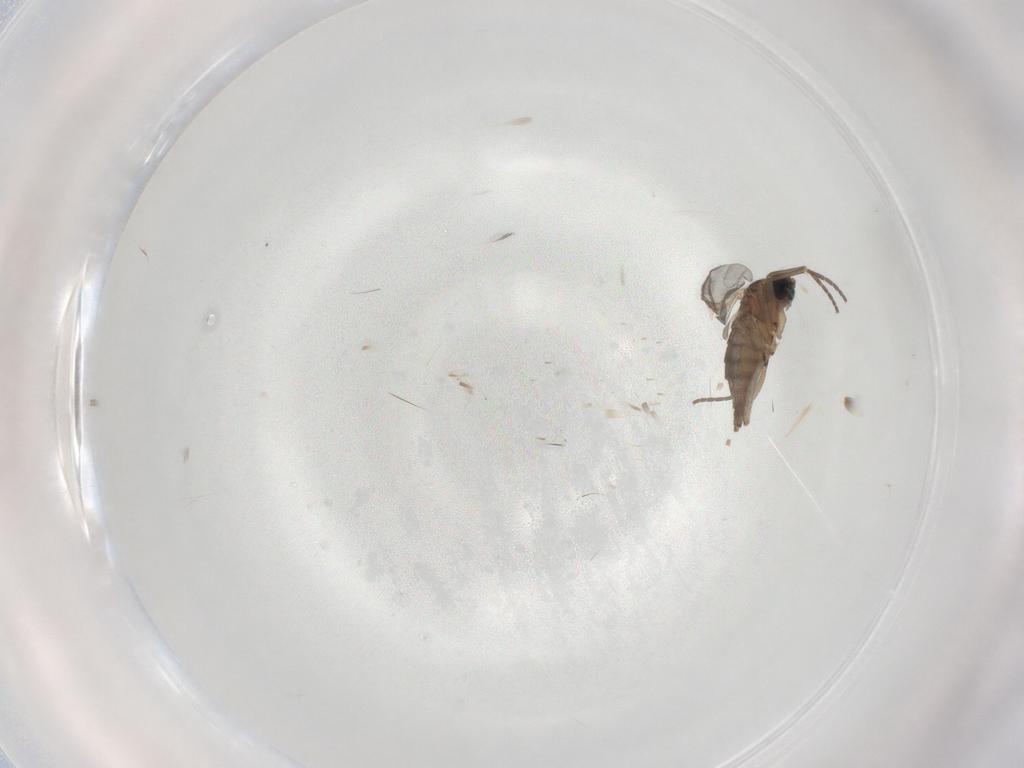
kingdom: Animalia
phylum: Arthropoda
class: Insecta
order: Diptera
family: Sciaridae
